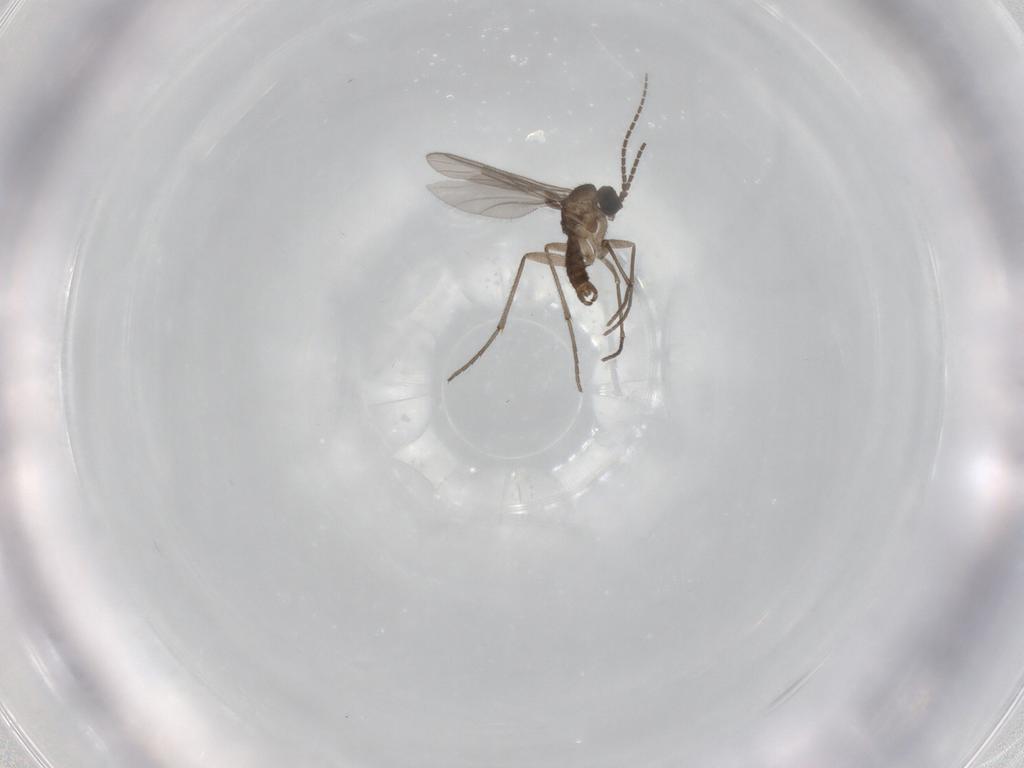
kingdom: Animalia
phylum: Arthropoda
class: Insecta
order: Diptera
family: Sciaridae
